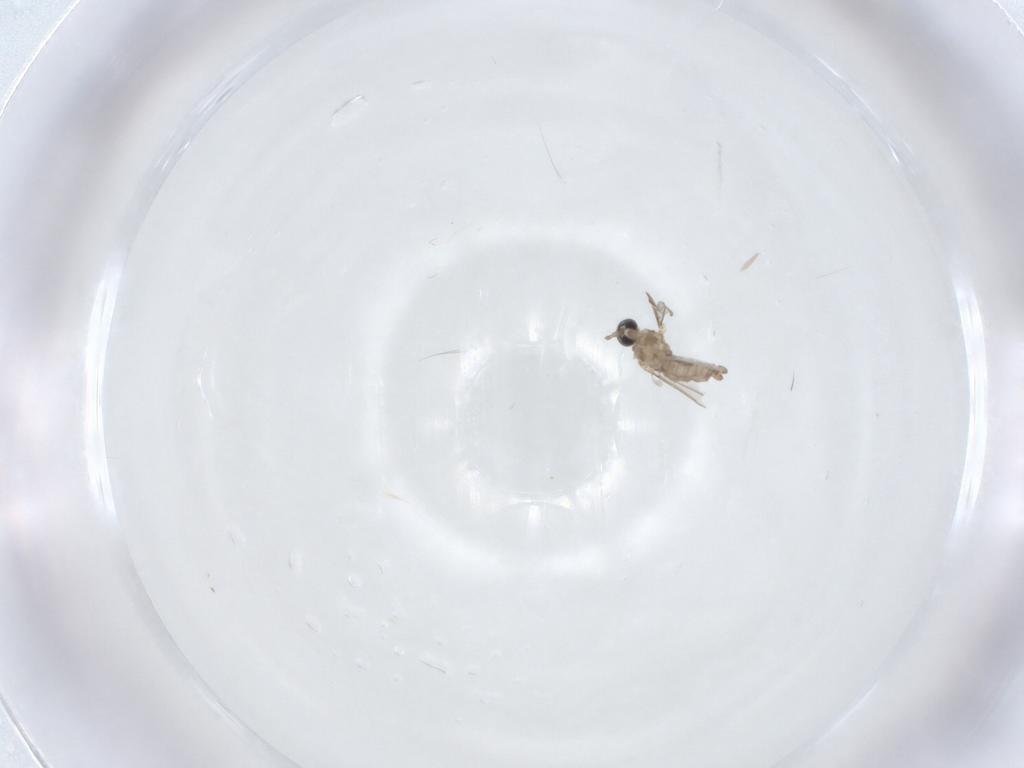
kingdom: Animalia
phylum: Arthropoda
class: Insecta
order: Diptera
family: Cecidomyiidae
